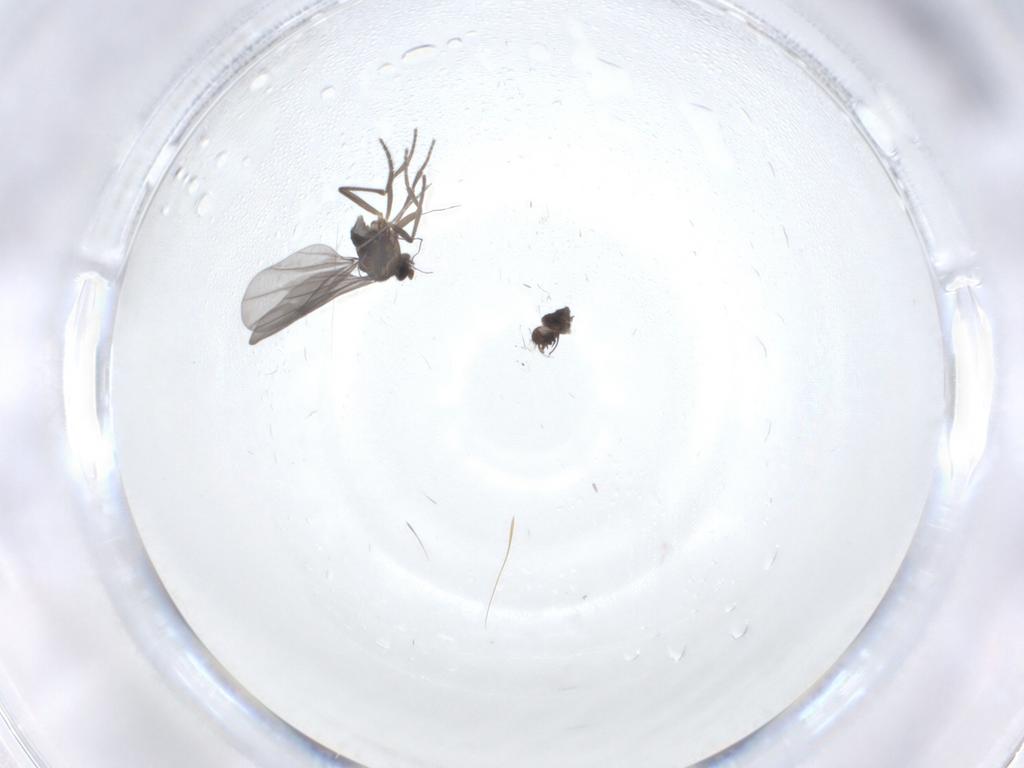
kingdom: Animalia
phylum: Arthropoda
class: Insecta
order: Diptera
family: Phoridae
